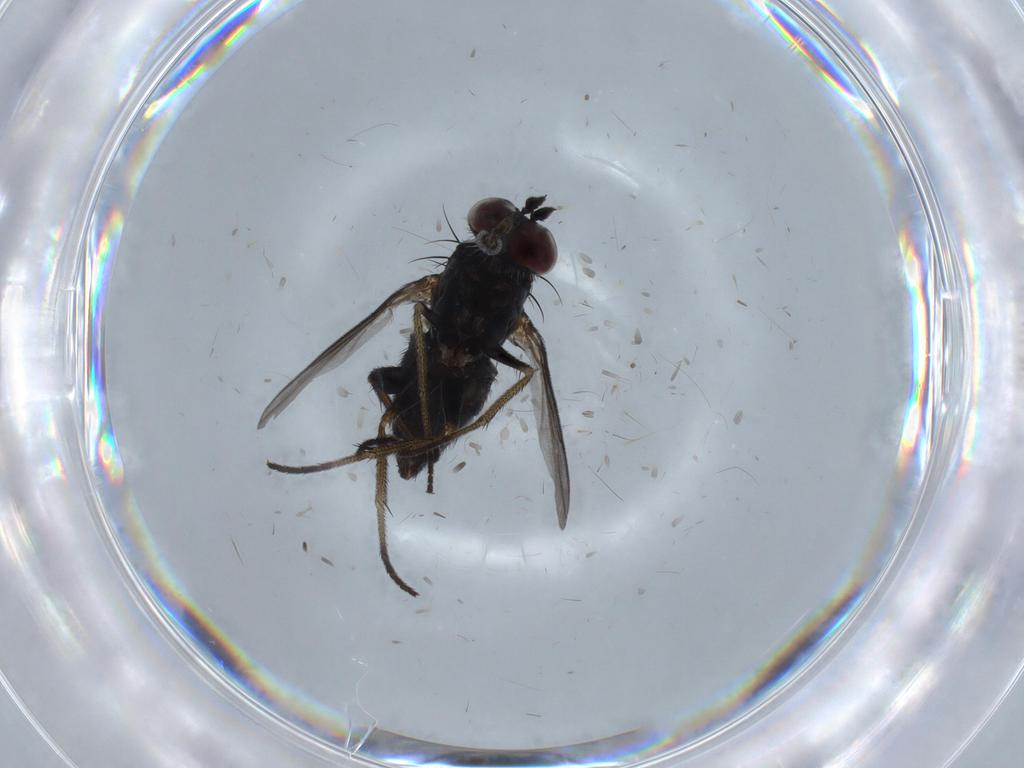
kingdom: Animalia
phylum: Arthropoda
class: Insecta
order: Diptera
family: Dolichopodidae
